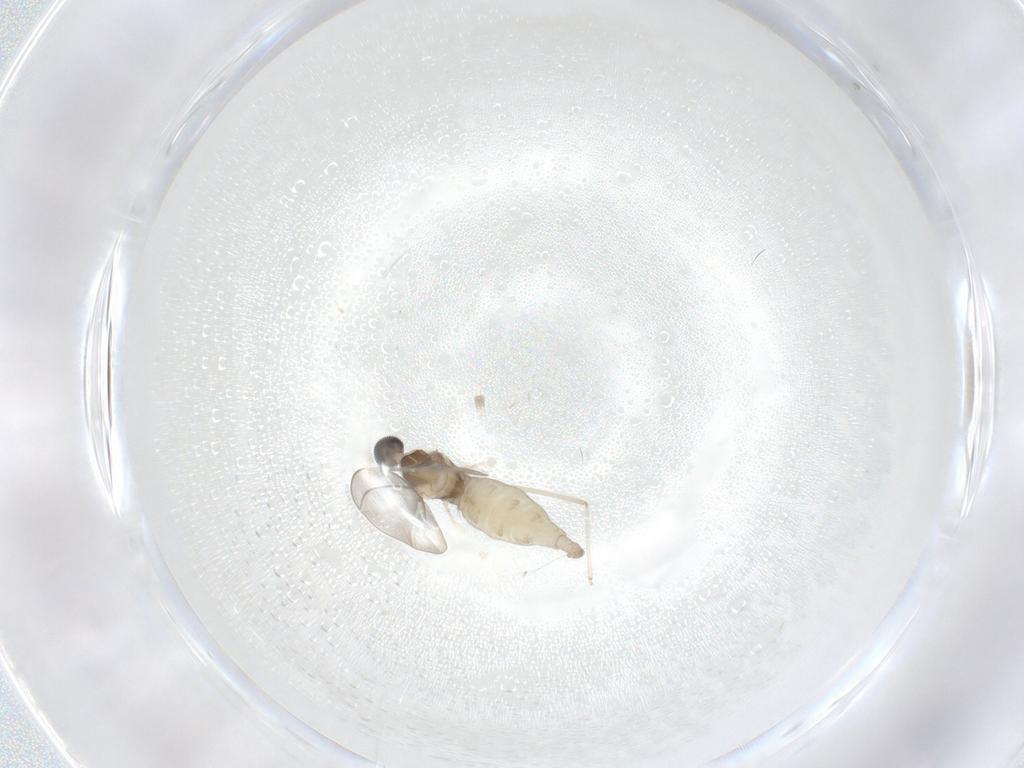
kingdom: Animalia
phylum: Arthropoda
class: Insecta
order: Diptera
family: Cecidomyiidae
